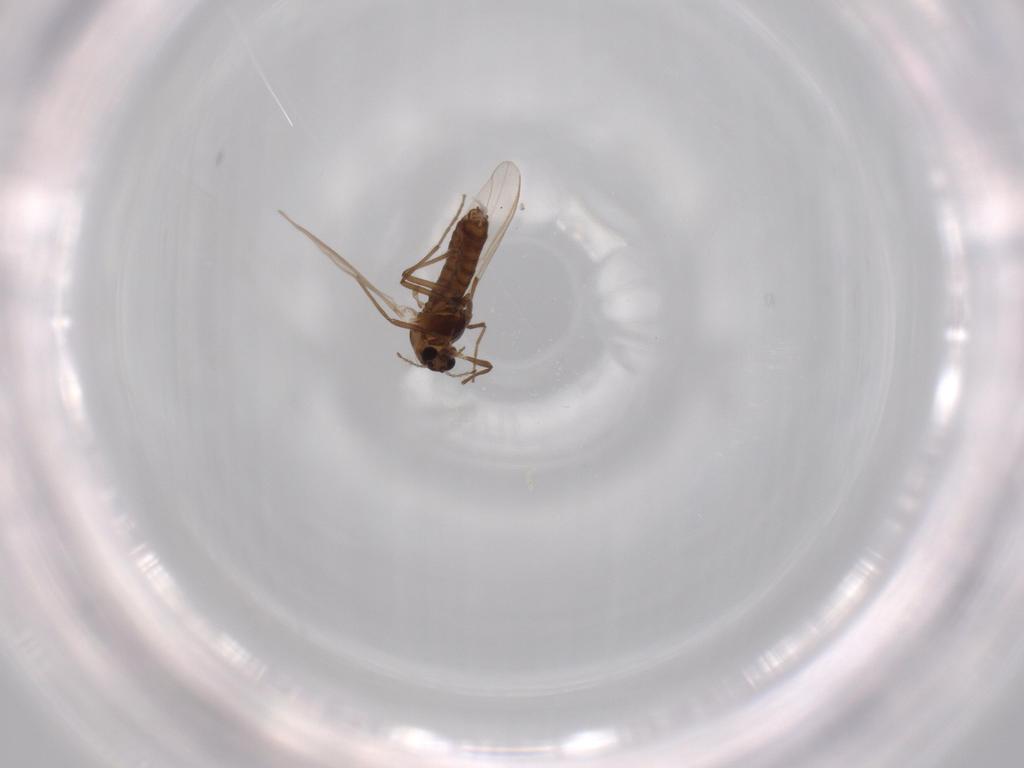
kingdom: Animalia
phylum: Arthropoda
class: Insecta
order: Diptera
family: Chironomidae
